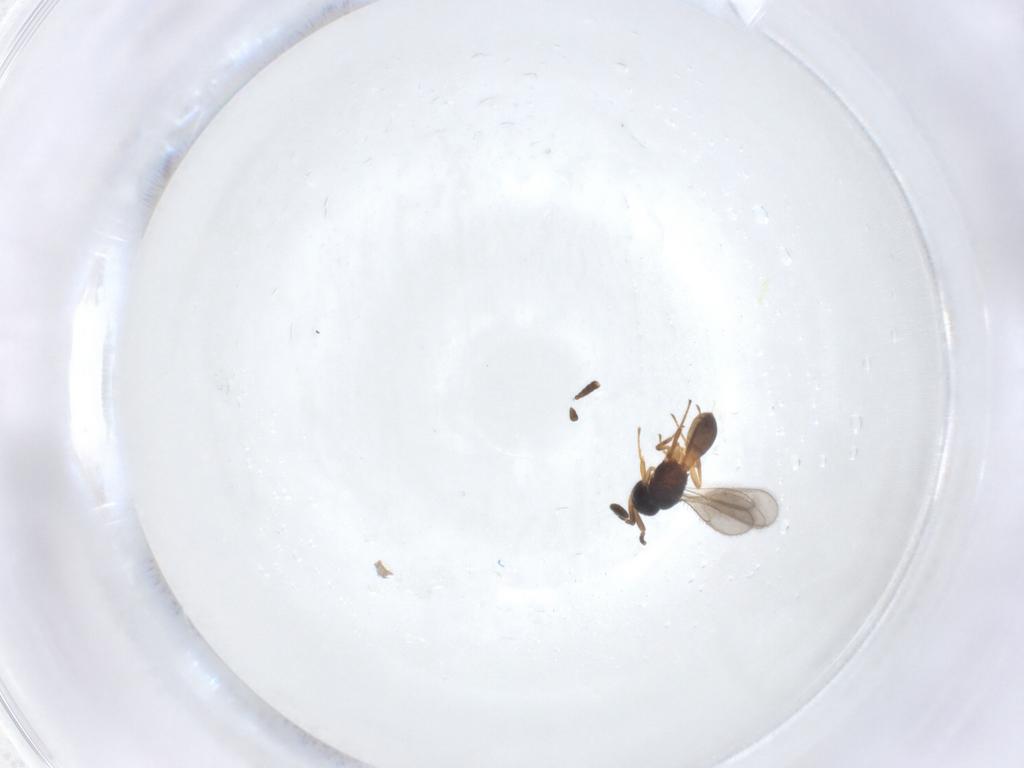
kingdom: Animalia
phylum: Arthropoda
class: Insecta
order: Hymenoptera
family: Scelionidae
